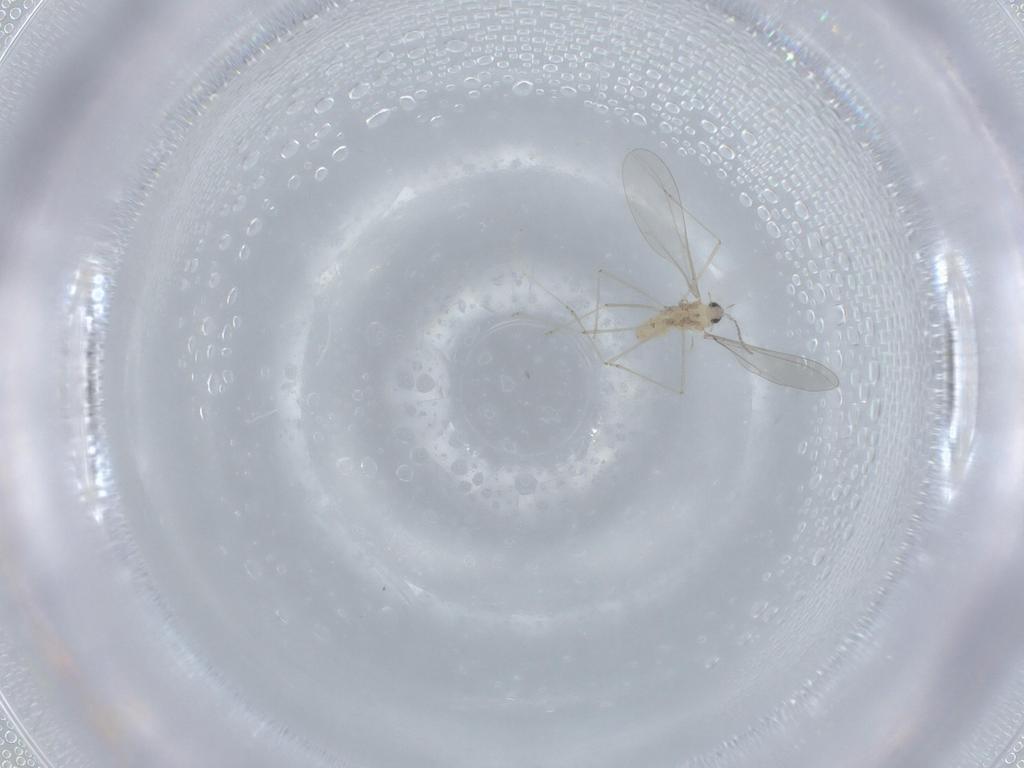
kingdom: Animalia
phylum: Arthropoda
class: Insecta
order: Diptera
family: Cecidomyiidae
